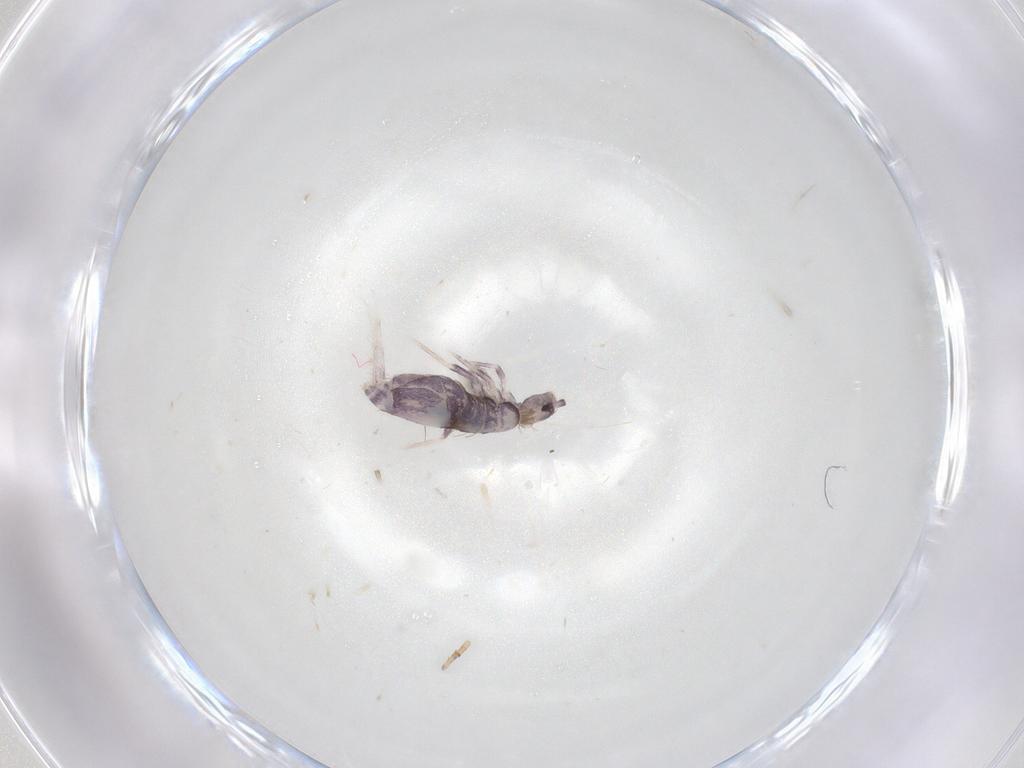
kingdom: Animalia
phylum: Arthropoda
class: Collembola
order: Poduromorpha
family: Hypogastruridae
